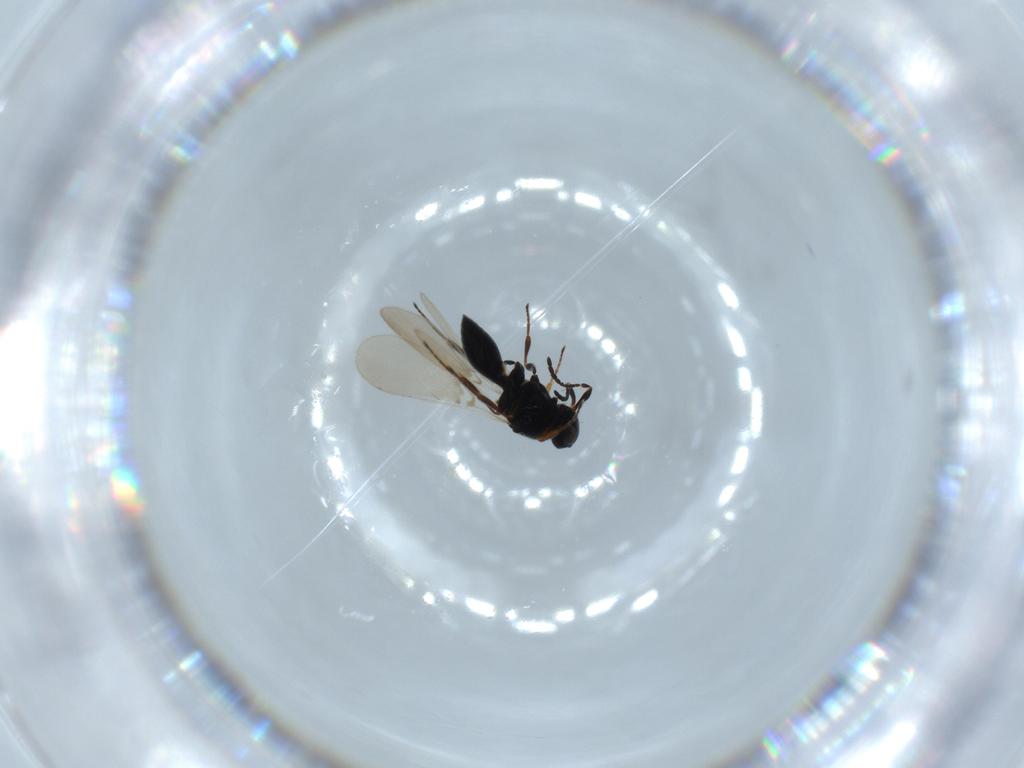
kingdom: Animalia
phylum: Arthropoda
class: Insecta
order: Hymenoptera
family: Platygastridae
